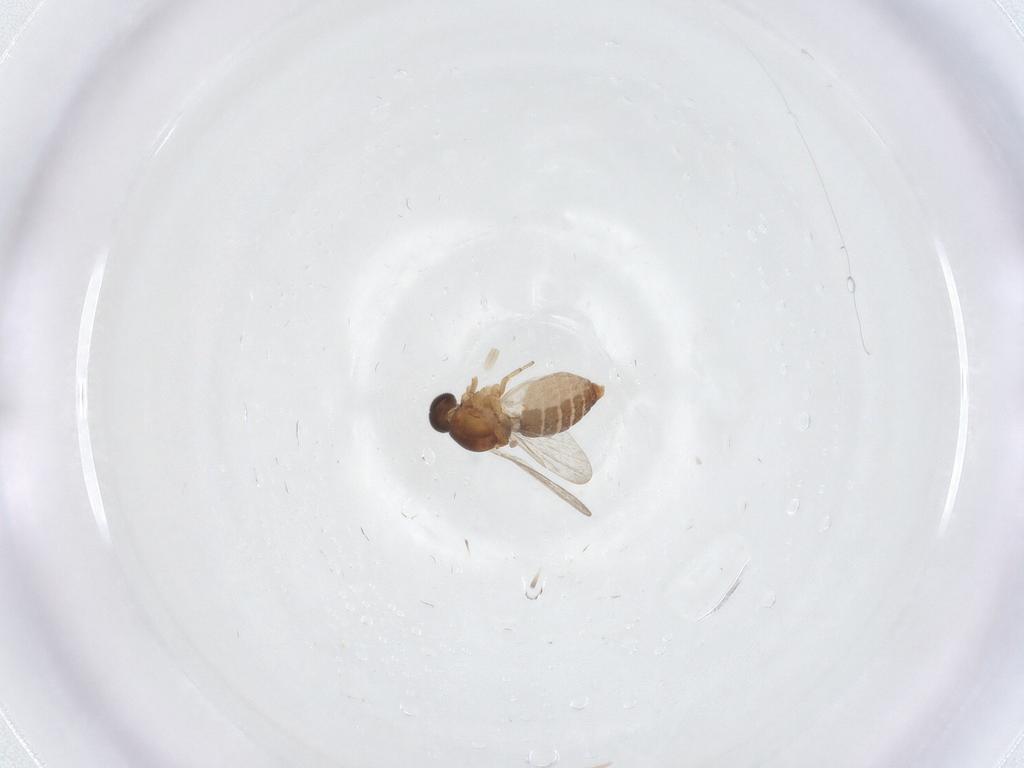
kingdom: Animalia
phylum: Arthropoda
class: Insecta
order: Diptera
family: Ceratopogonidae
